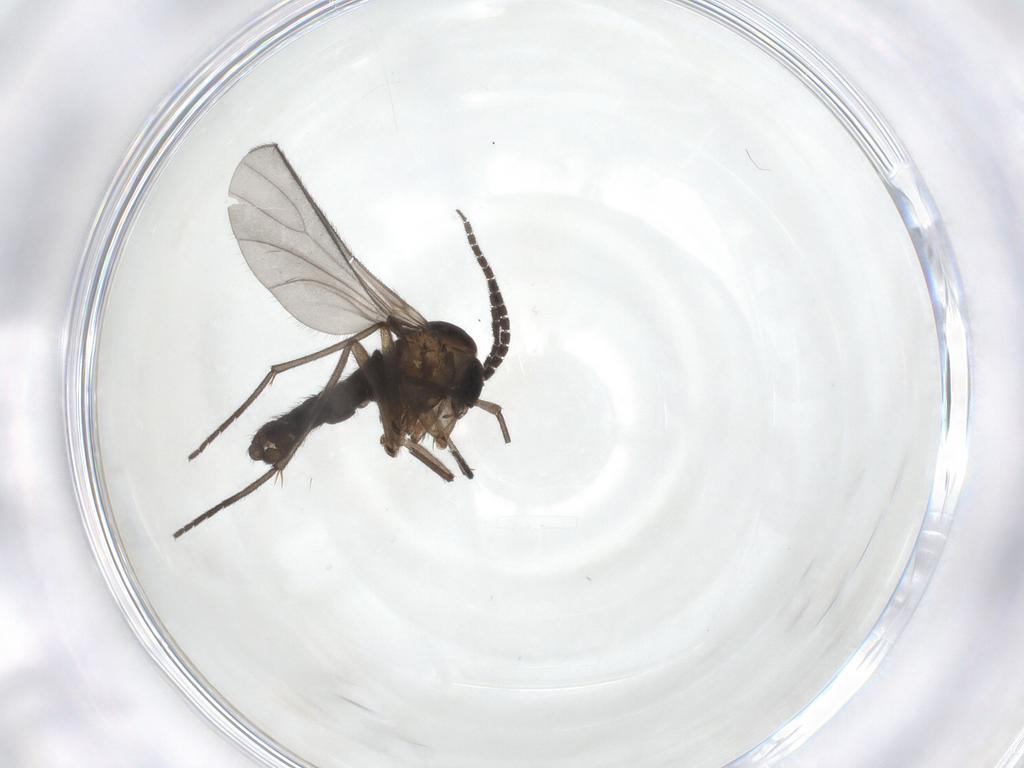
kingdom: Animalia
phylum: Arthropoda
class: Insecta
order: Diptera
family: Sciaridae
